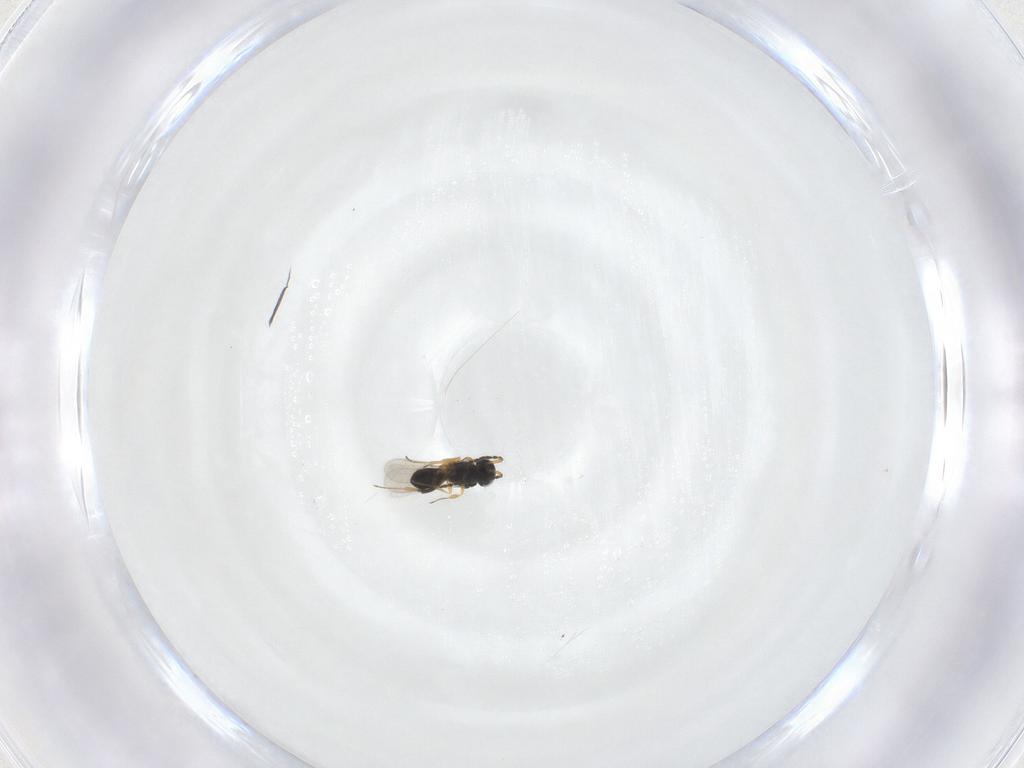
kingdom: Animalia
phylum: Arthropoda
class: Insecta
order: Hymenoptera
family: Scelionidae
